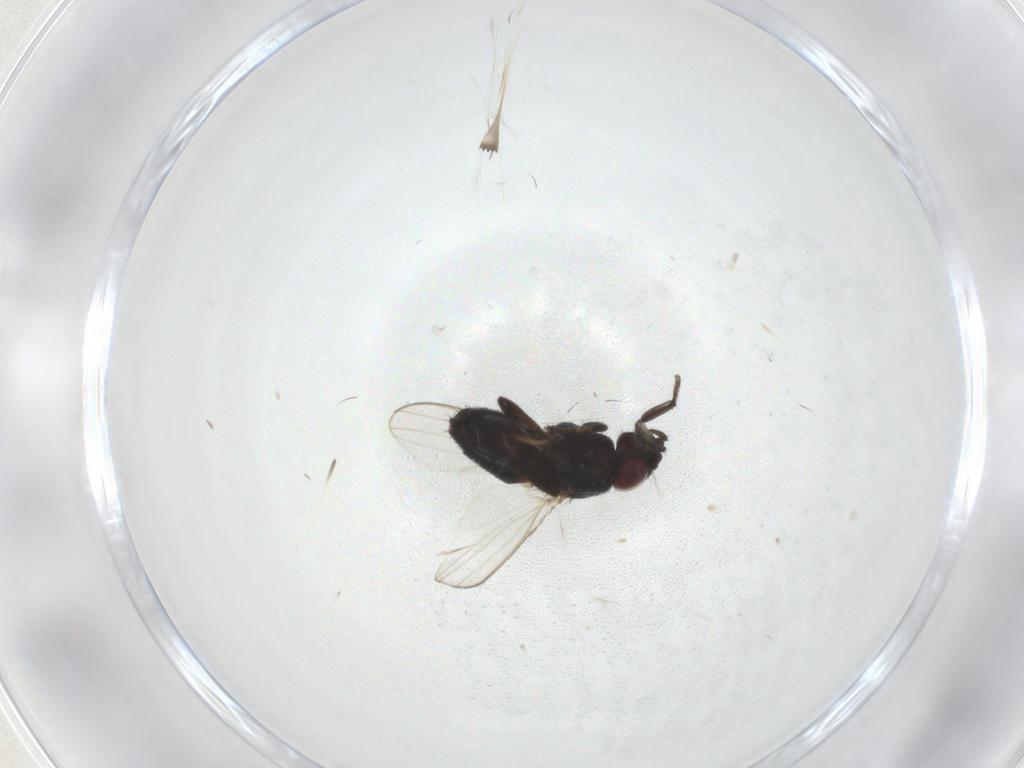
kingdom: Animalia
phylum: Arthropoda
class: Insecta
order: Diptera
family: Milichiidae
